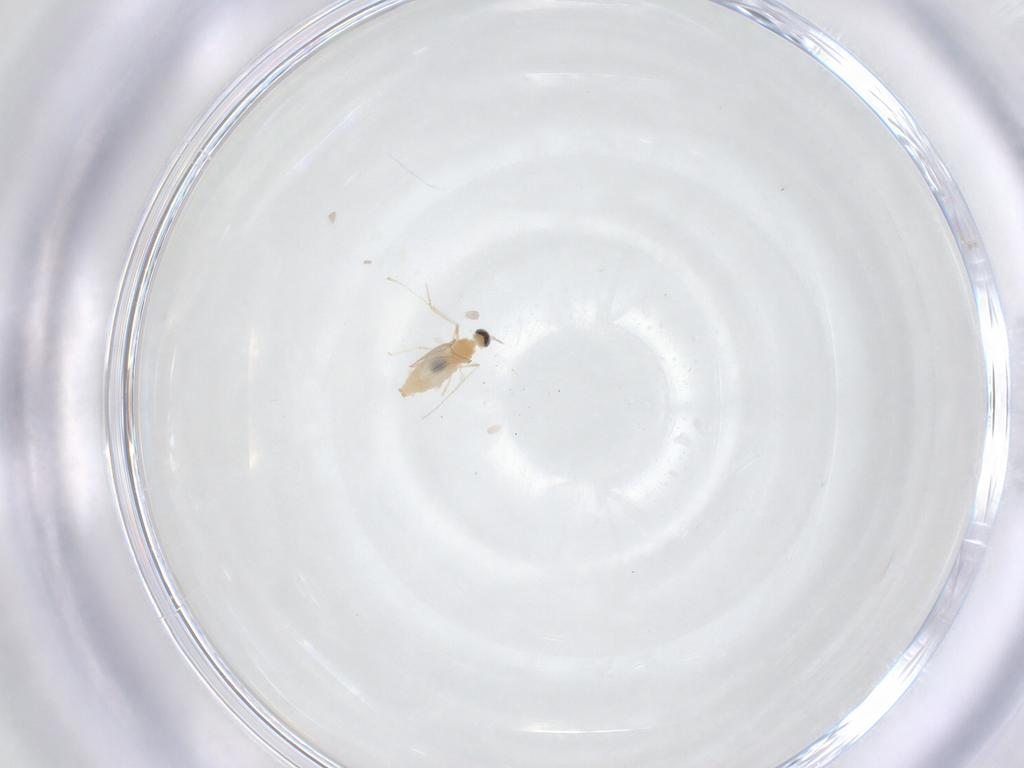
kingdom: Animalia
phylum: Arthropoda
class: Insecta
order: Diptera
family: Cecidomyiidae
